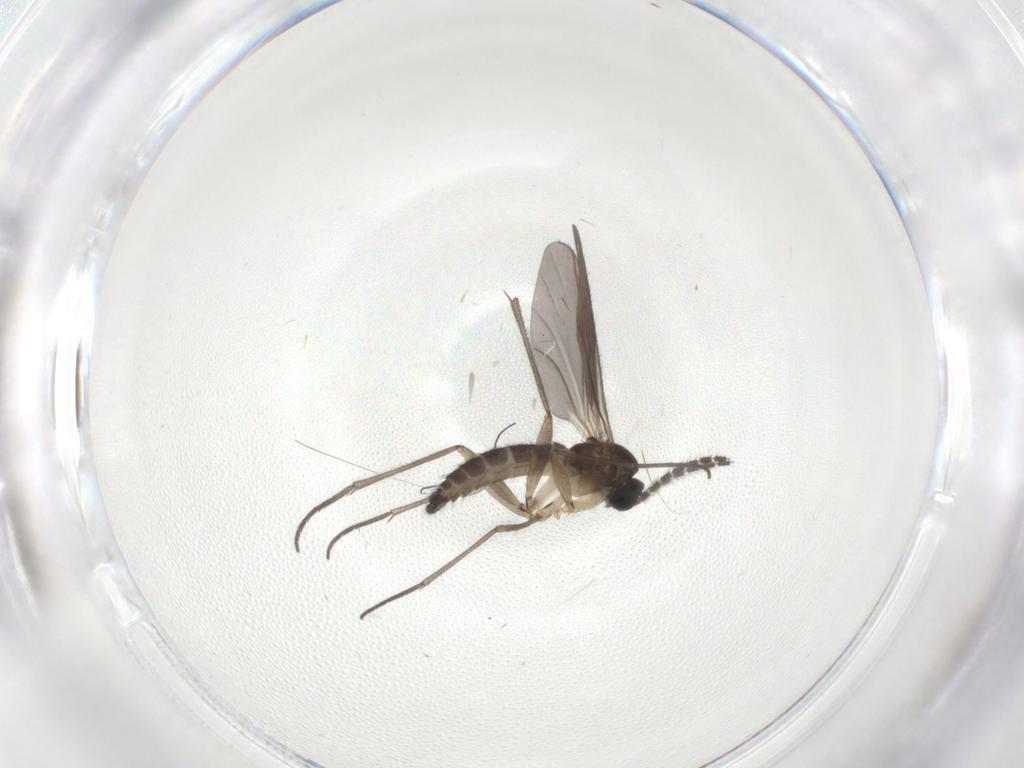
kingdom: Animalia
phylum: Arthropoda
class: Insecta
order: Diptera
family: Sciaridae
